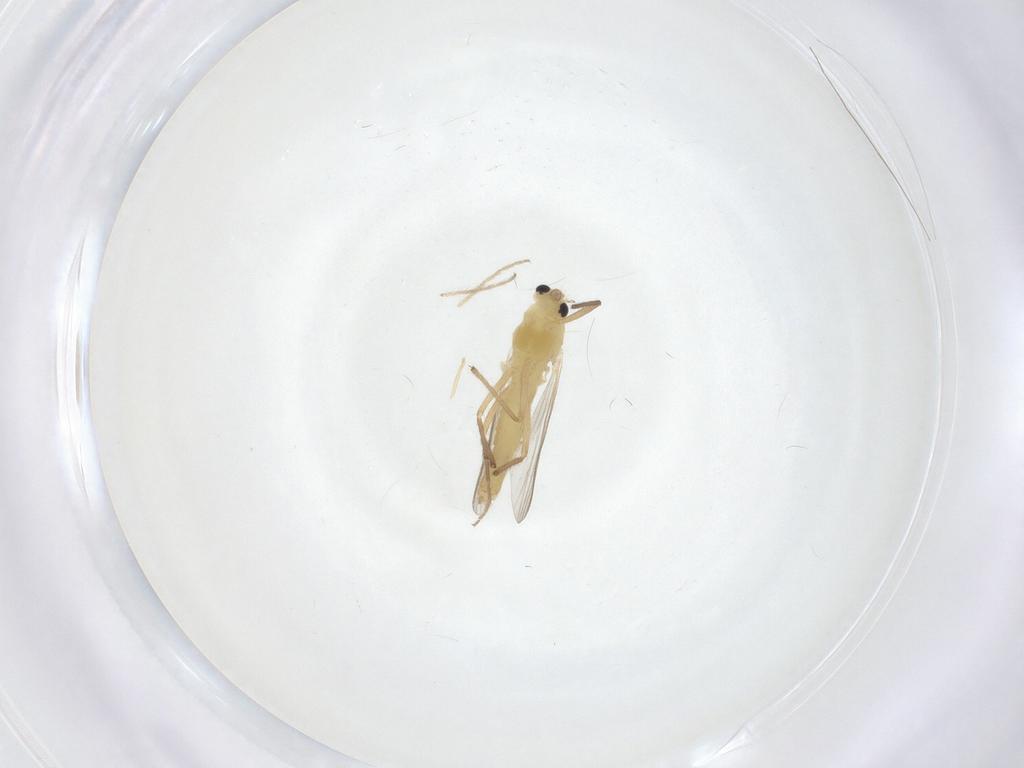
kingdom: Animalia
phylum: Arthropoda
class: Insecta
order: Diptera
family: Chironomidae
